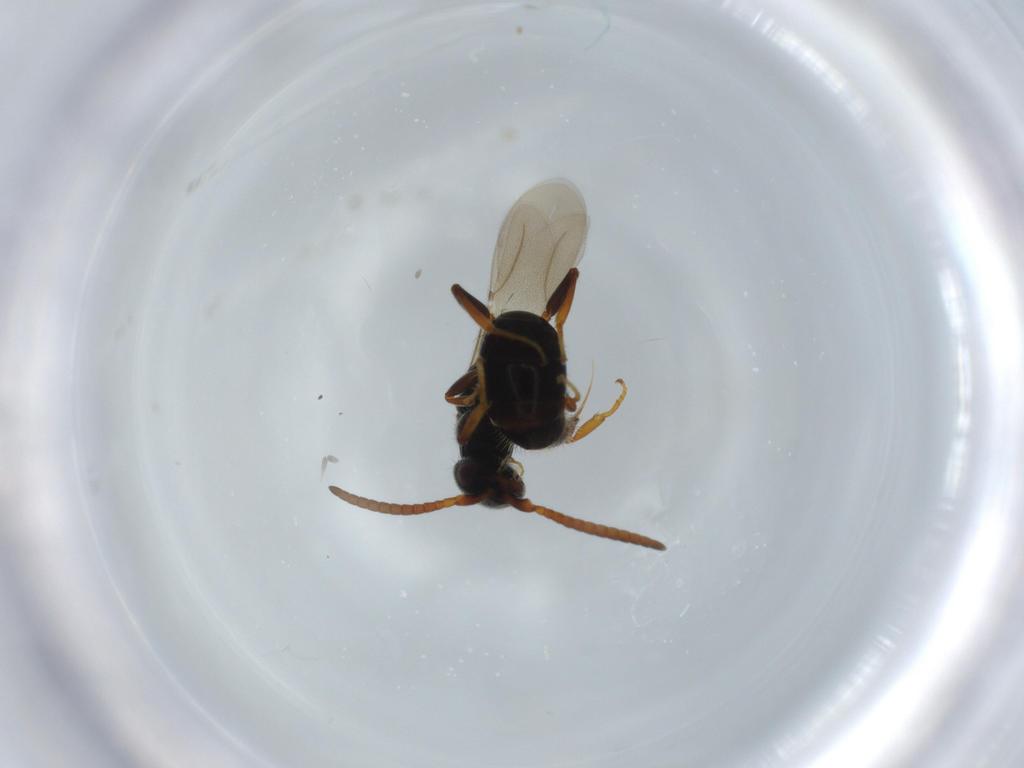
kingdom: Animalia
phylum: Arthropoda
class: Insecta
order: Hymenoptera
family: Bethylidae
